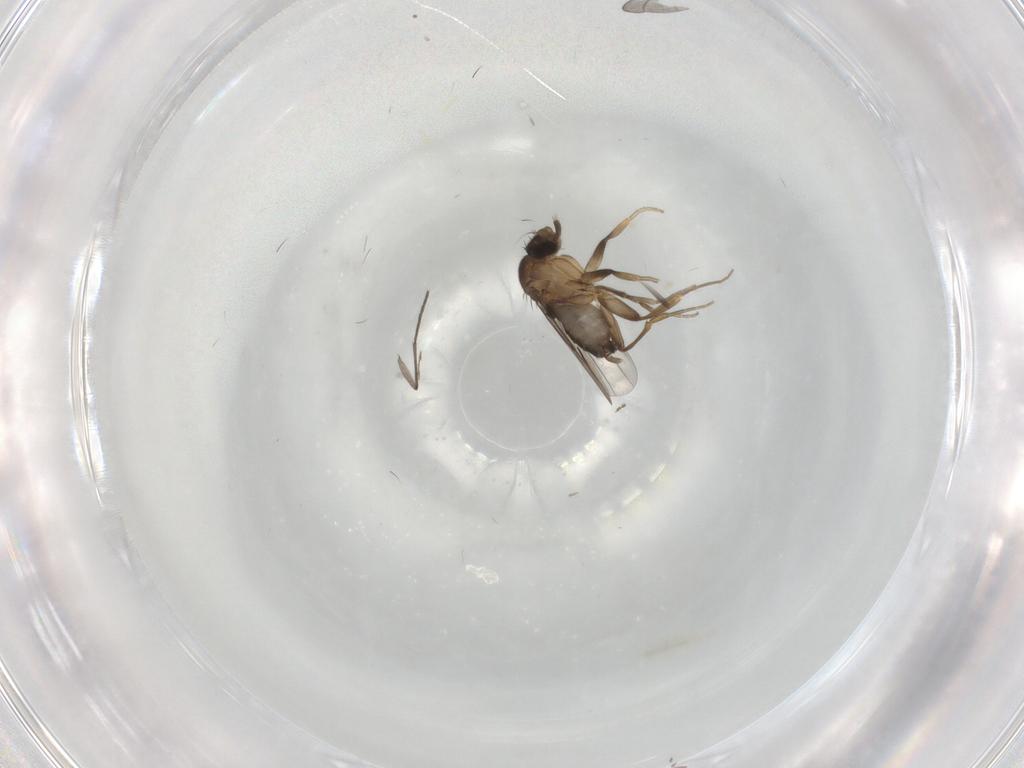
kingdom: Animalia
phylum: Arthropoda
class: Insecta
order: Diptera
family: Phoridae
